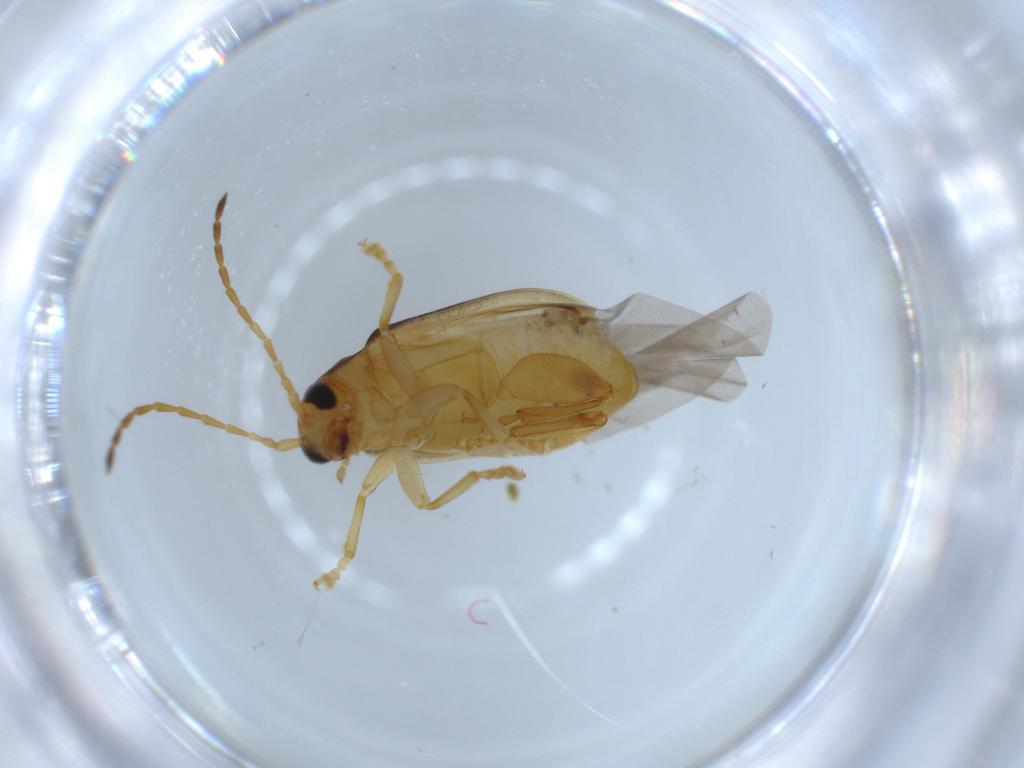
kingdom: Animalia
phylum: Arthropoda
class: Insecta
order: Coleoptera
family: Chrysomelidae
